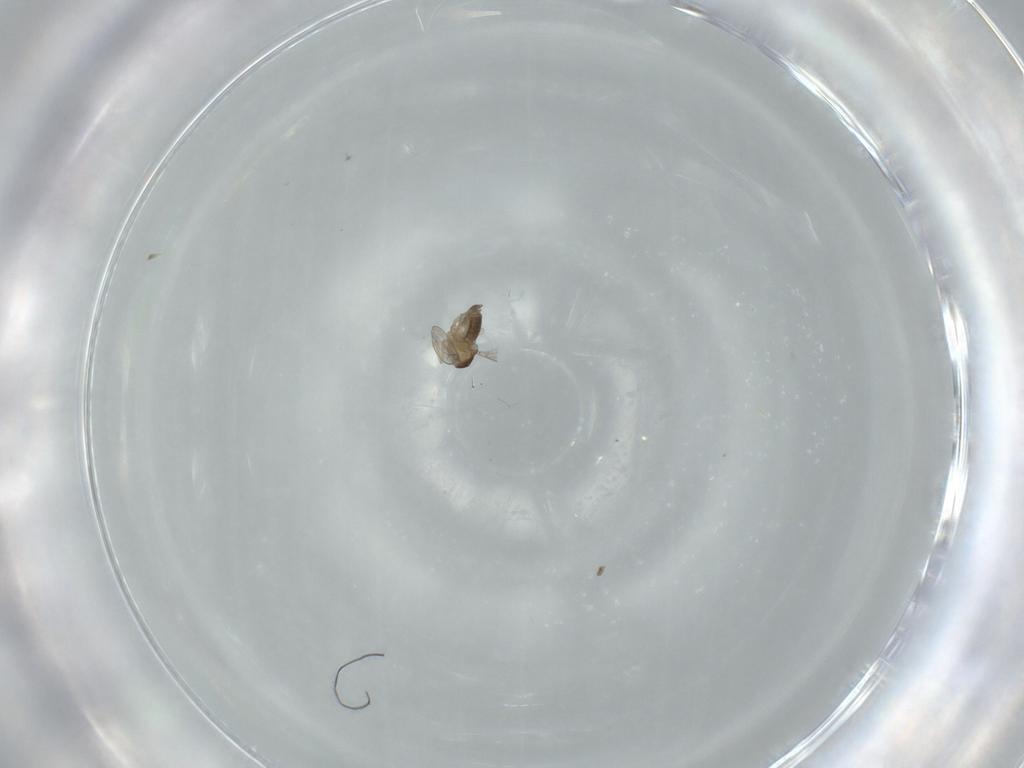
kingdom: Animalia
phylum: Arthropoda
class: Insecta
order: Diptera
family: Cecidomyiidae
